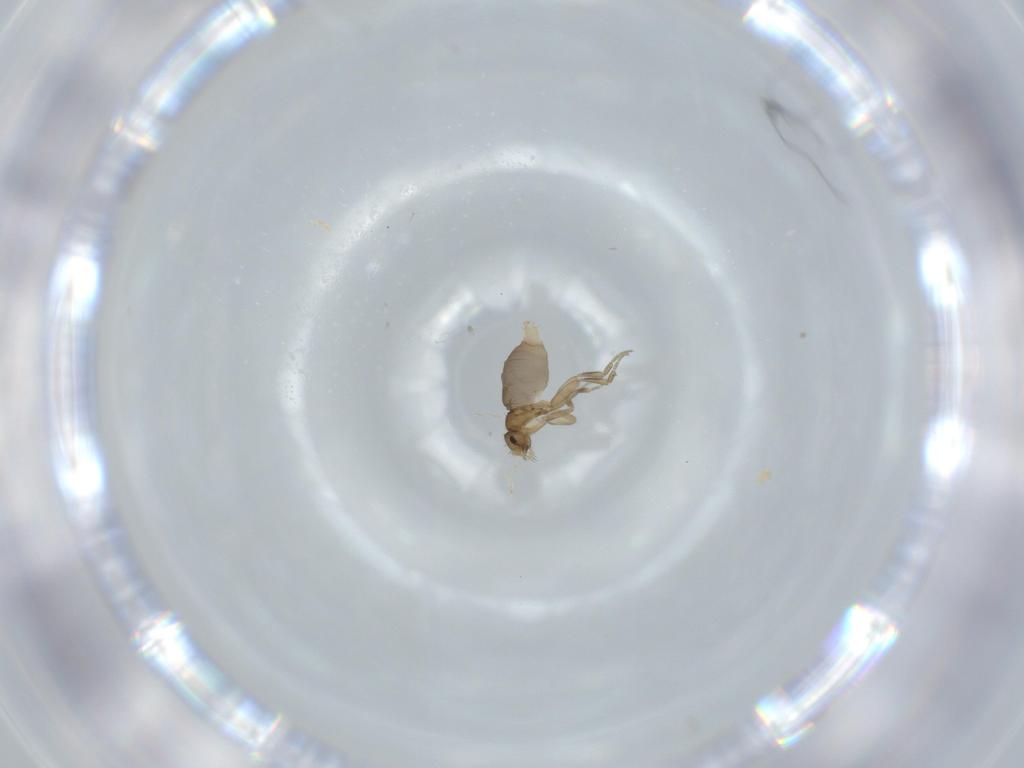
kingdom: Animalia
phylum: Arthropoda
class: Insecta
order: Diptera
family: Phoridae
